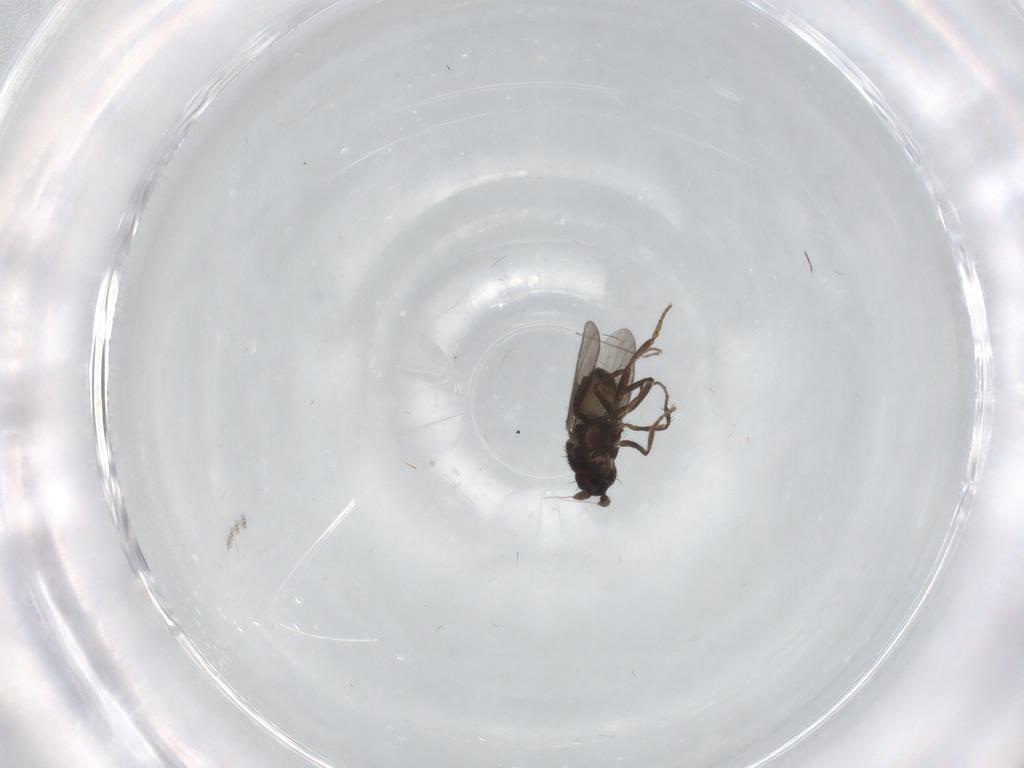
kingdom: Animalia
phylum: Arthropoda
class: Insecta
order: Diptera
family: Sphaeroceridae
